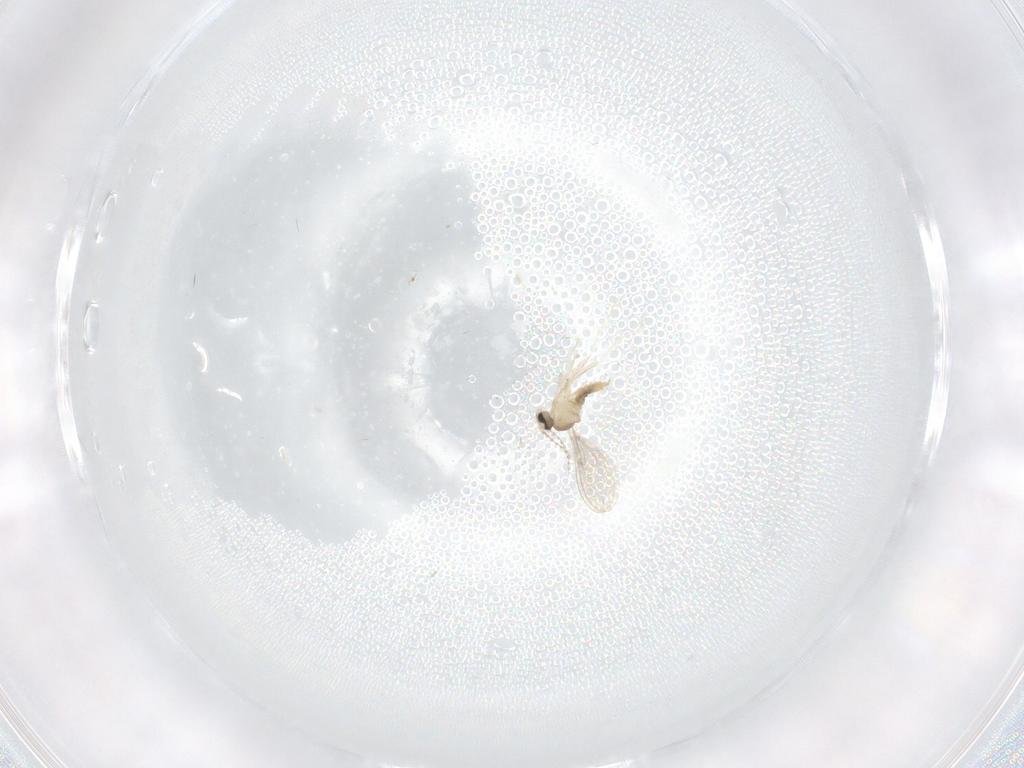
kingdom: Animalia
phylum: Arthropoda
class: Insecta
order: Diptera
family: Cecidomyiidae
